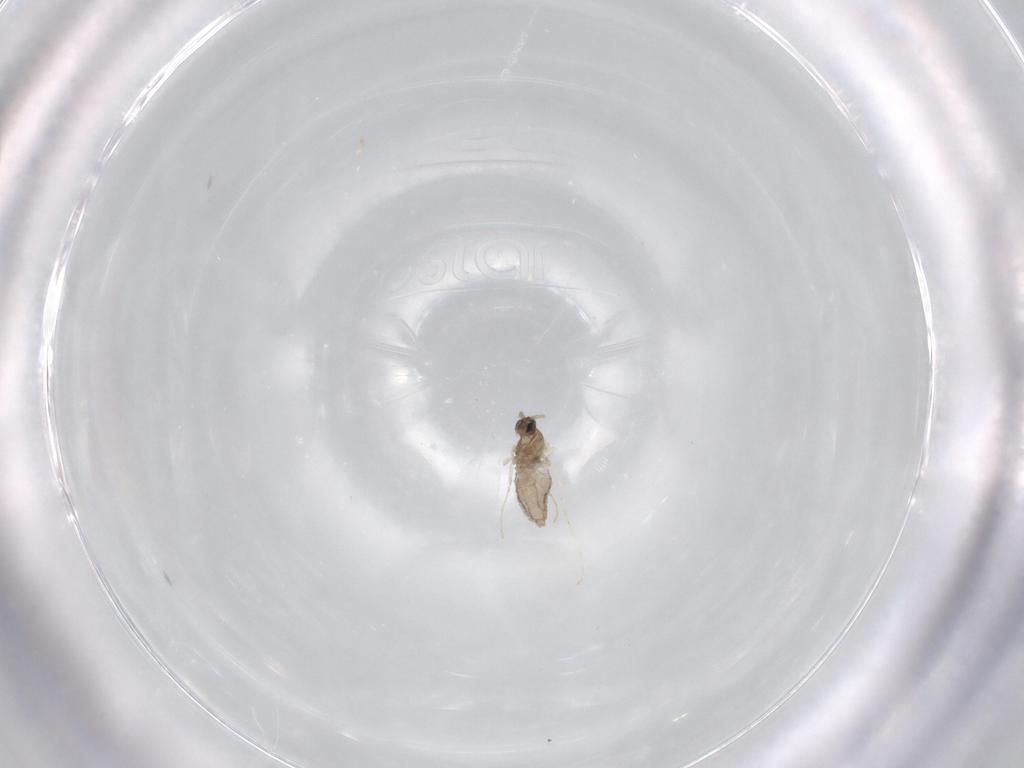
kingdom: Animalia
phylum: Arthropoda
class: Insecta
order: Diptera
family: Cecidomyiidae
